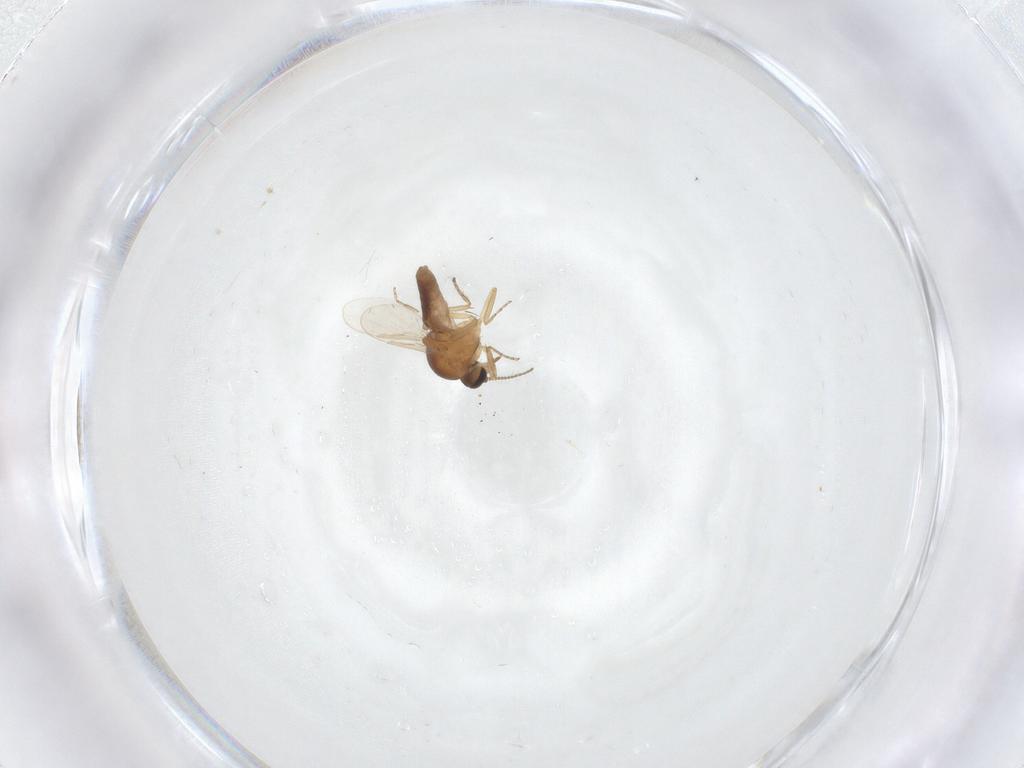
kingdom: Animalia
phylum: Arthropoda
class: Insecta
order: Diptera
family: Ceratopogonidae
